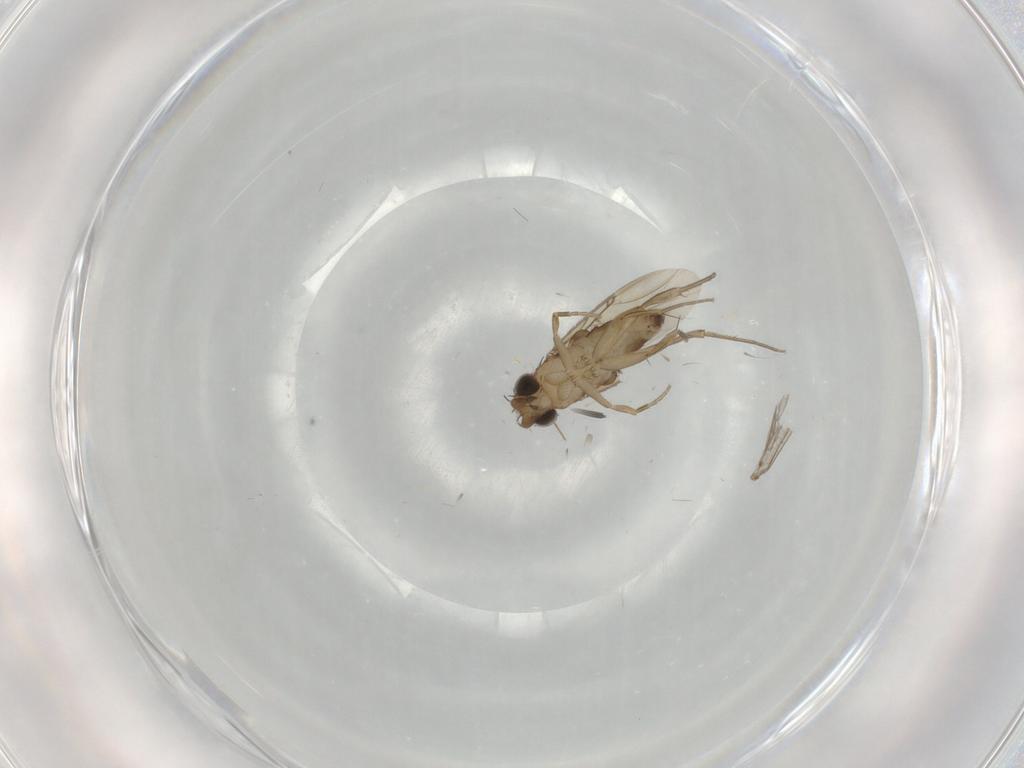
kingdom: Animalia
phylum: Arthropoda
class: Insecta
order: Diptera
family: Phoridae
